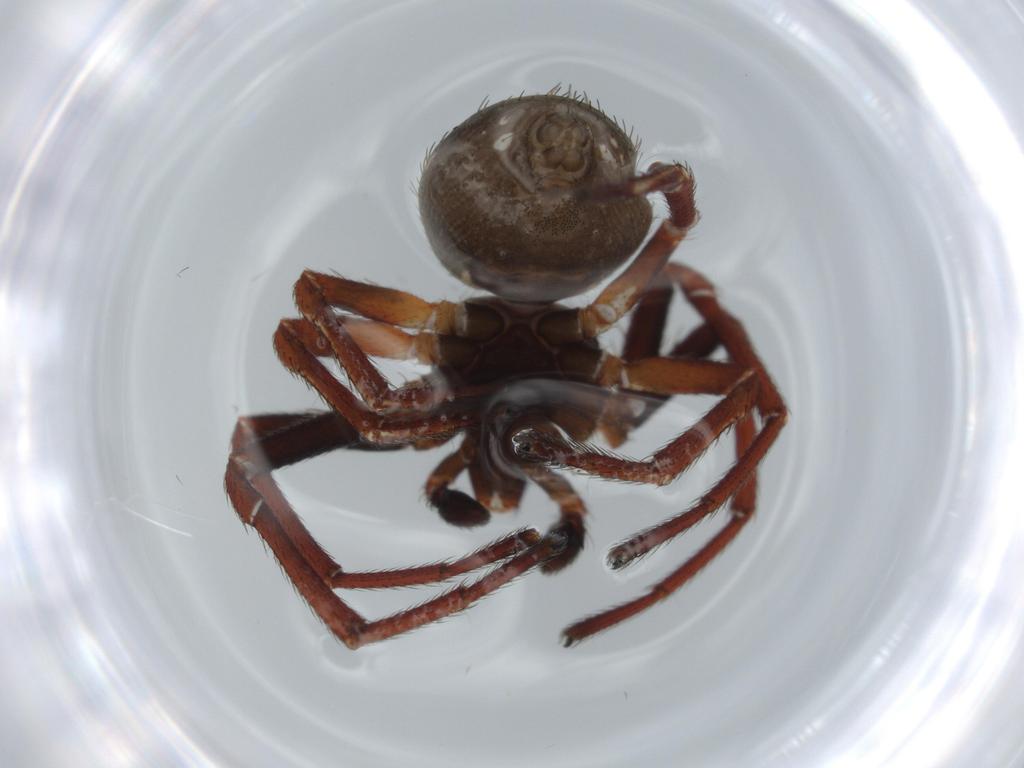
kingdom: Animalia
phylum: Arthropoda
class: Arachnida
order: Araneae
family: Thomisidae
